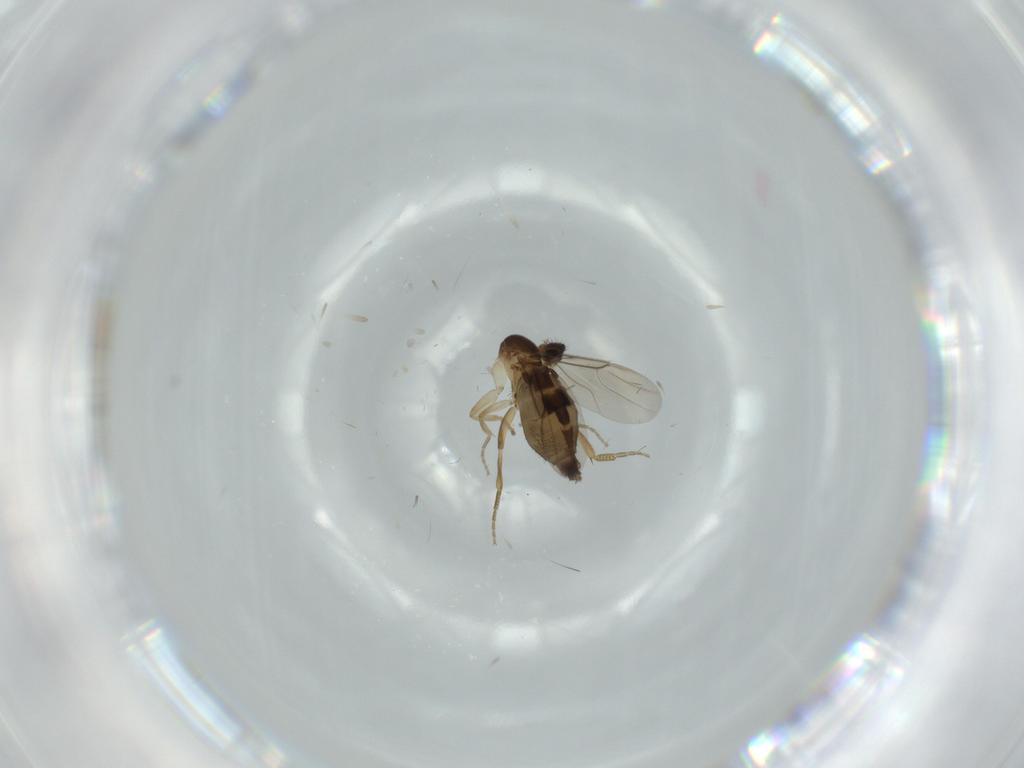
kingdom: Animalia
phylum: Arthropoda
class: Insecta
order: Diptera
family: Phoridae
